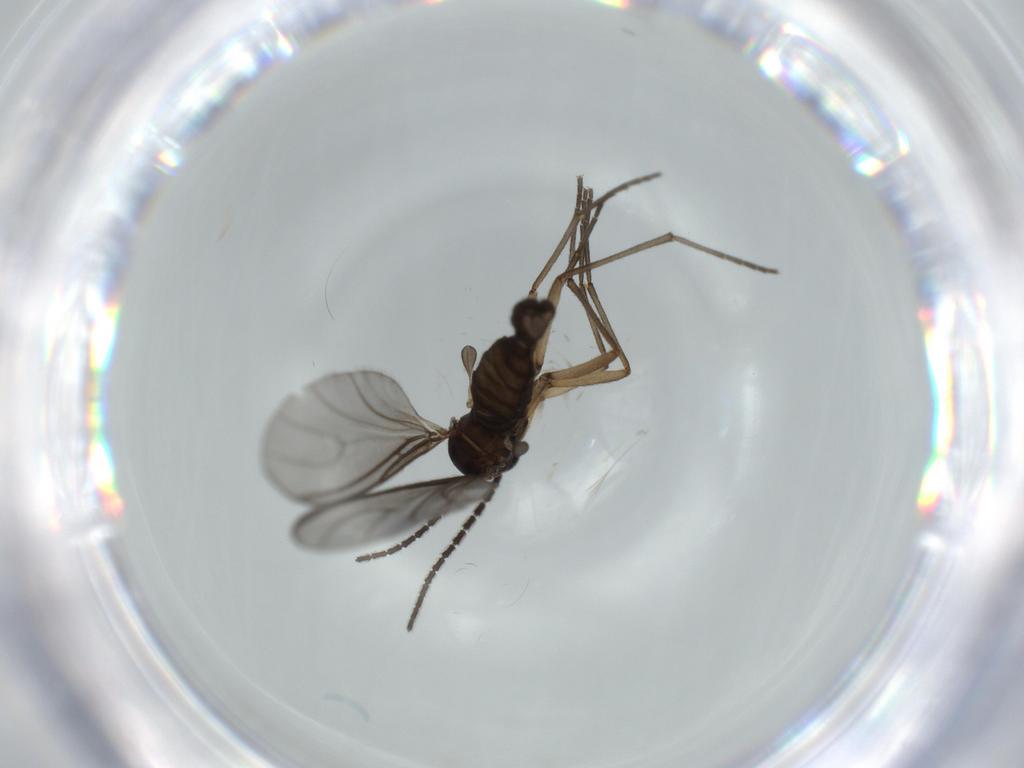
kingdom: Animalia
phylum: Arthropoda
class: Insecta
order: Diptera
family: Sciaridae
